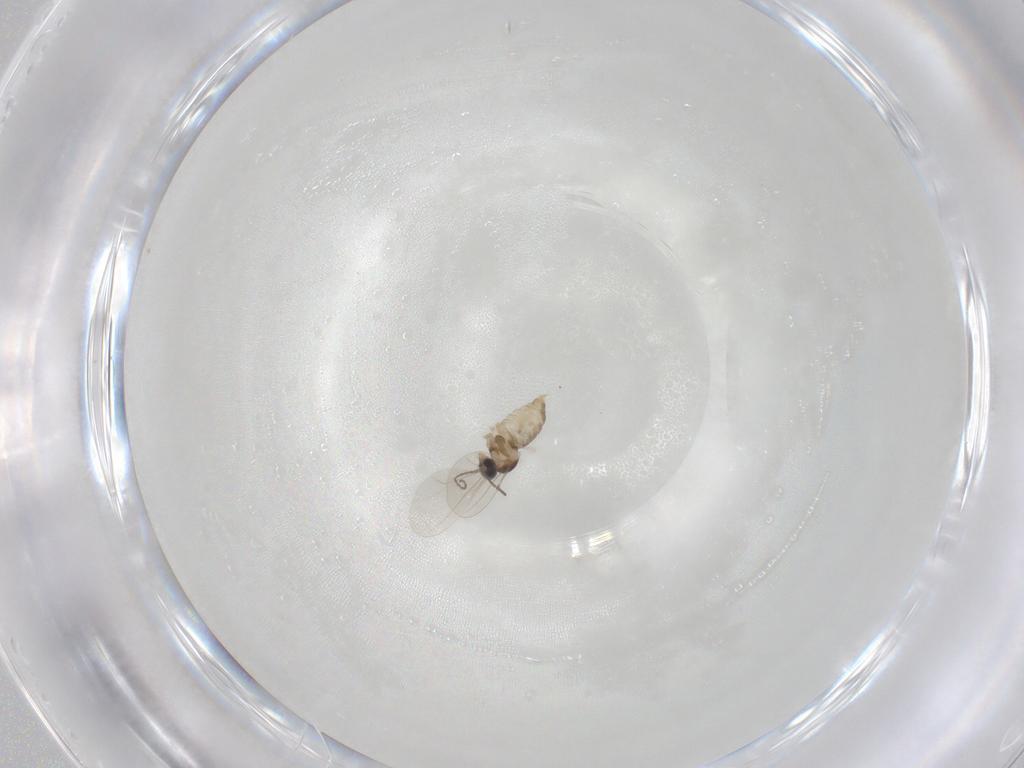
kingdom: Animalia
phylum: Arthropoda
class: Insecta
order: Diptera
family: Cecidomyiidae
